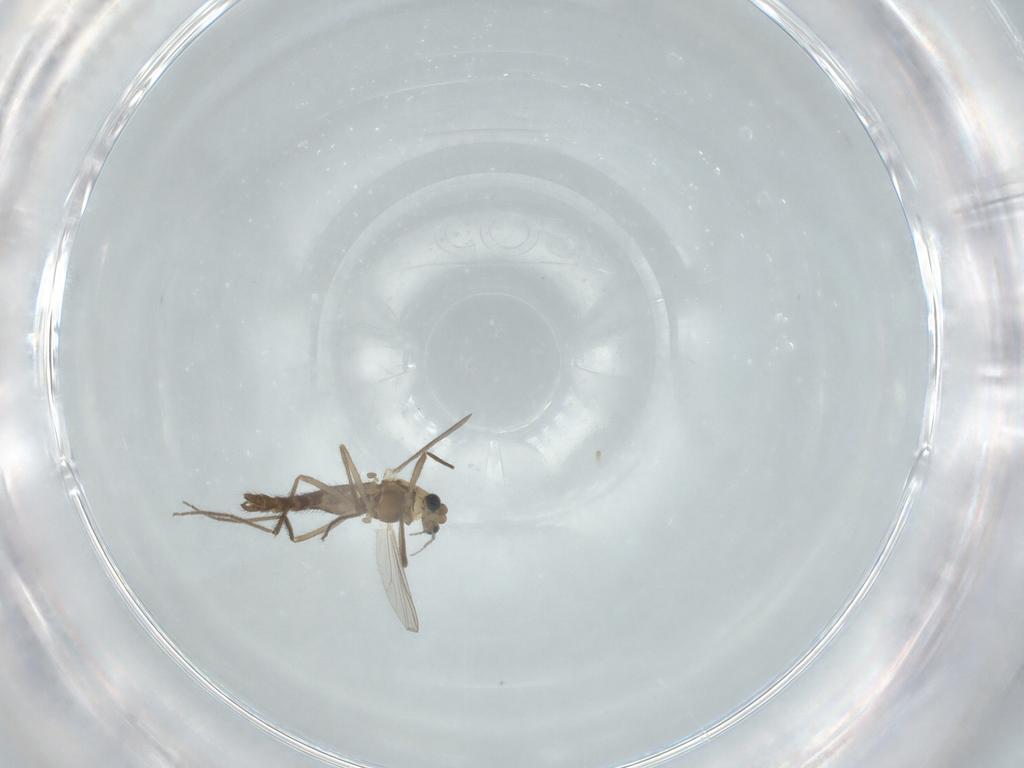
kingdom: Animalia
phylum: Arthropoda
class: Insecta
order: Diptera
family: Chironomidae
